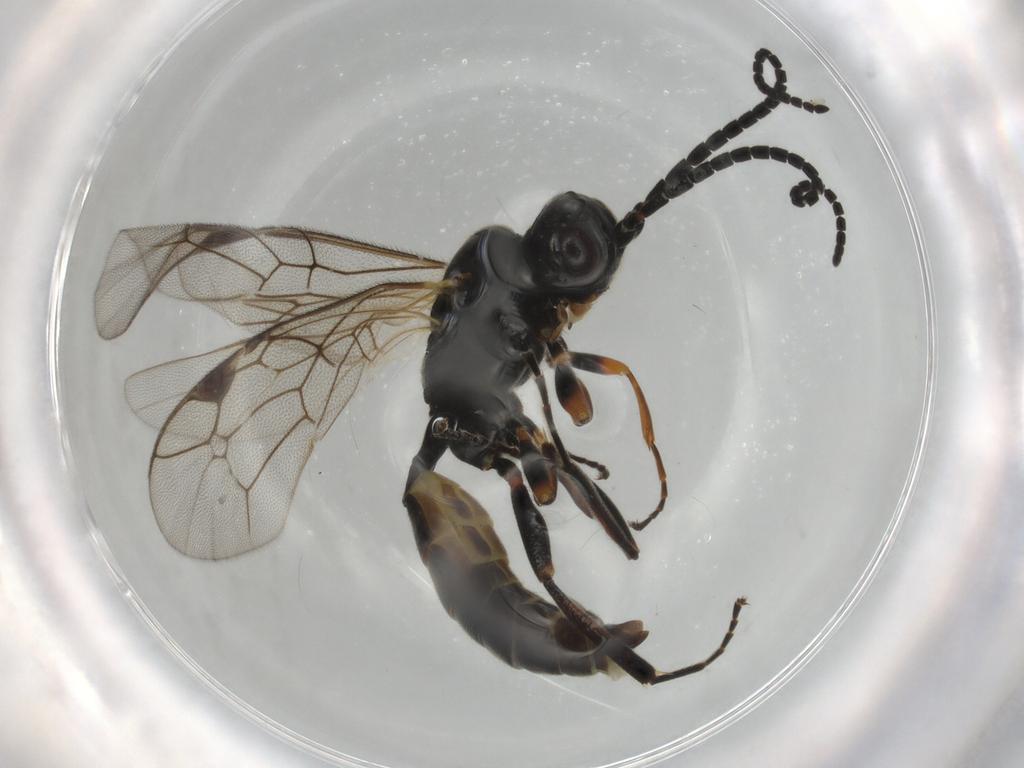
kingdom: Animalia
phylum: Arthropoda
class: Insecta
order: Hymenoptera
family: Ichneumonidae
